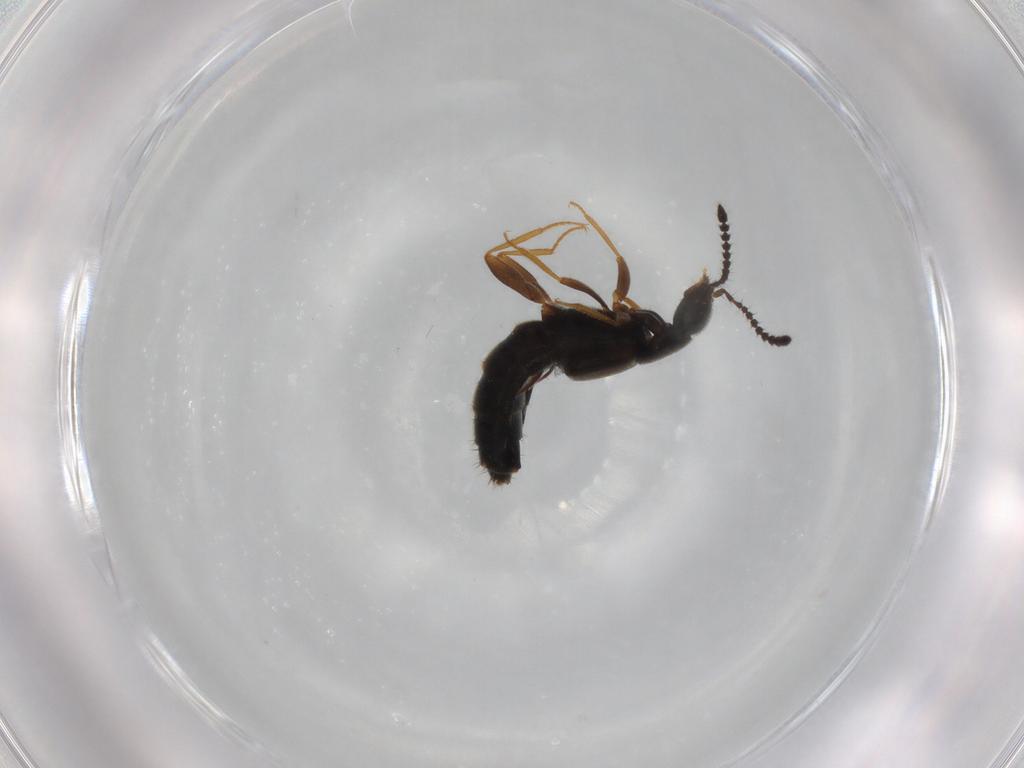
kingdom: Animalia
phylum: Arthropoda
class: Insecta
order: Coleoptera
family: Staphylinidae
